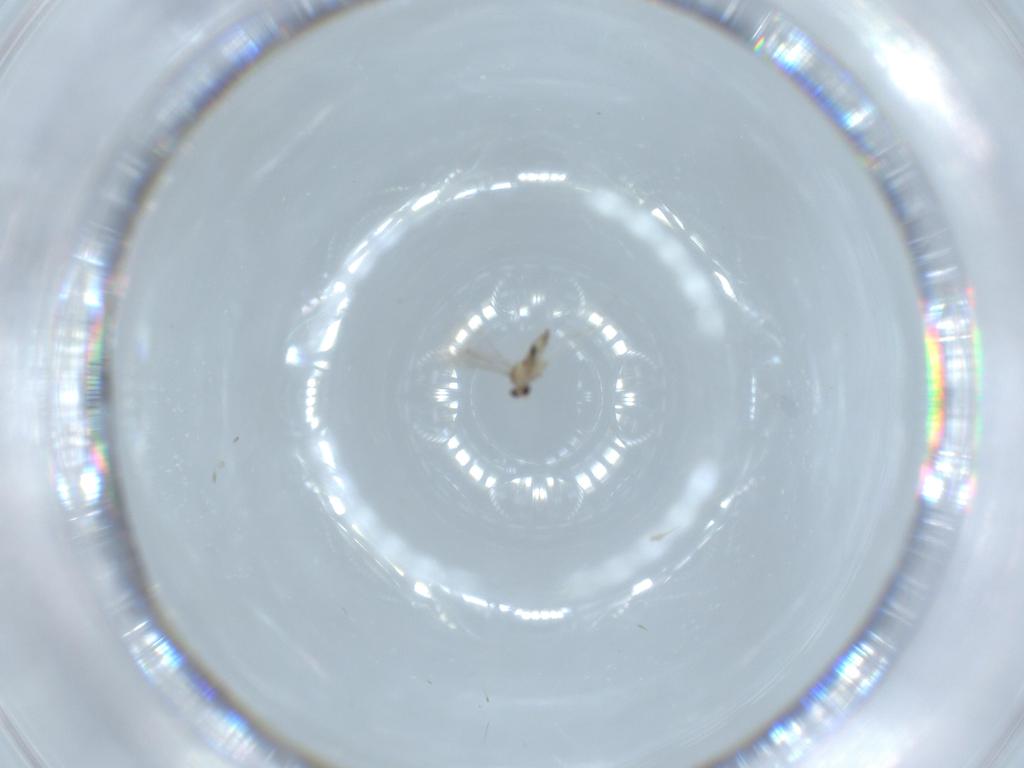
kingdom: Animalia
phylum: Arthropoda
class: Insecta
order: Diptera
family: Cecidomyiidae
